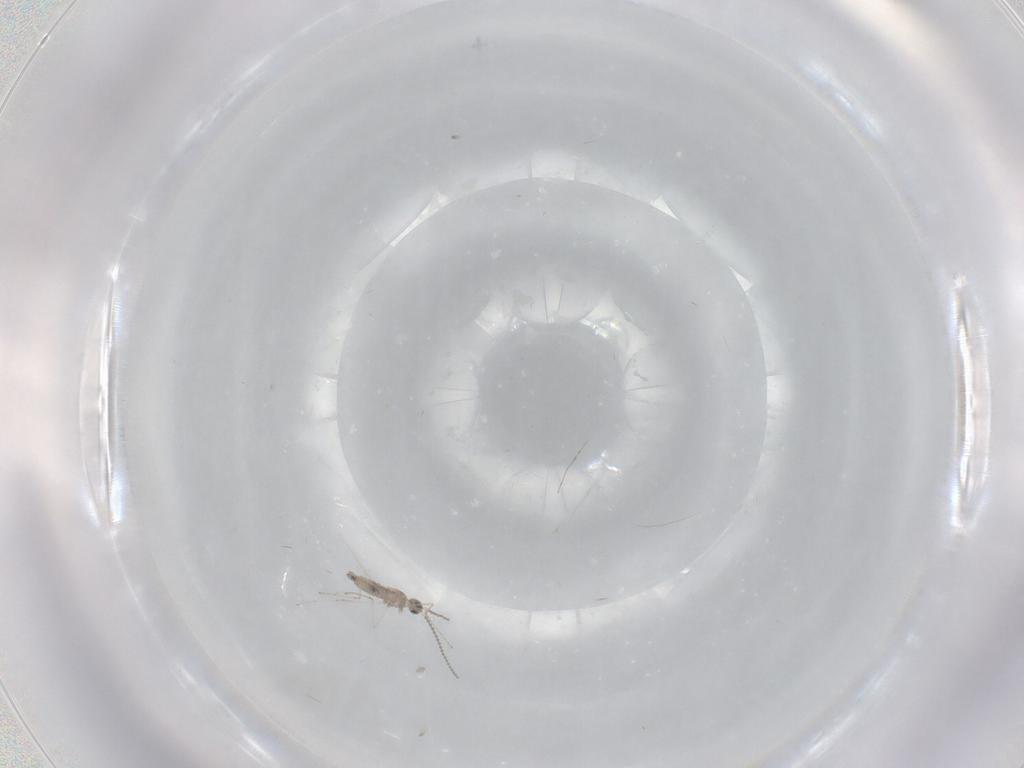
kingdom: Animalia
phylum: Arthropoda
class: Insecta
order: Diptera
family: Cecidomyiidae
